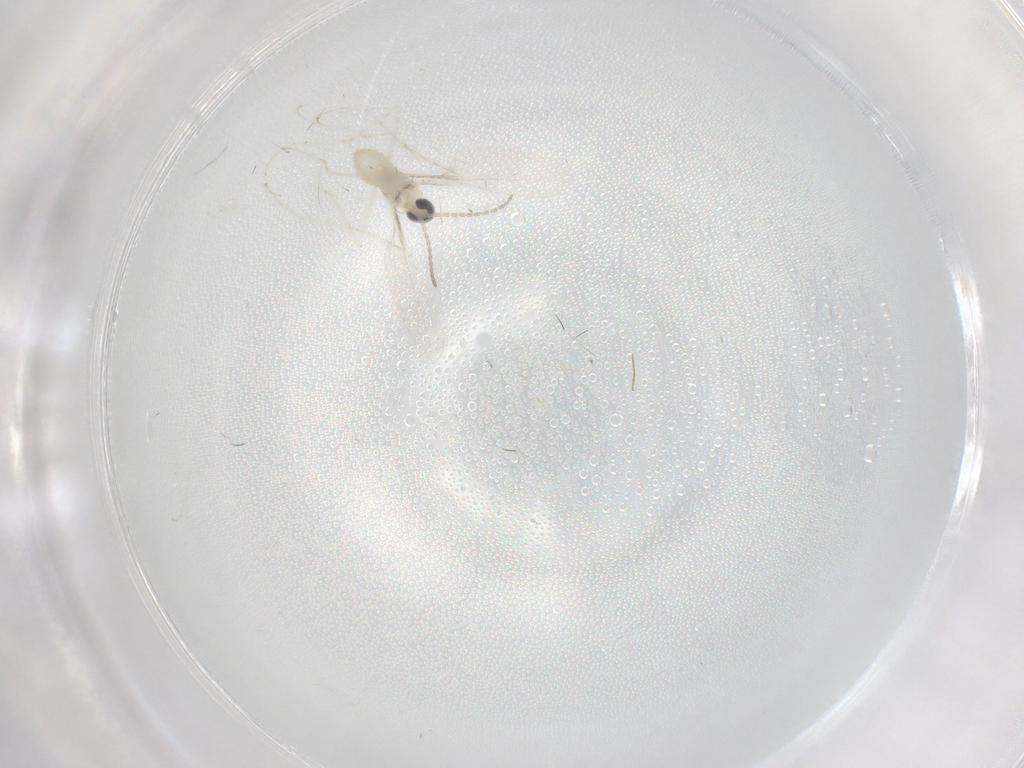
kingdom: Animalia
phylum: Arthropoda
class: Insecta
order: Diptera
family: Cecidomyiidae
